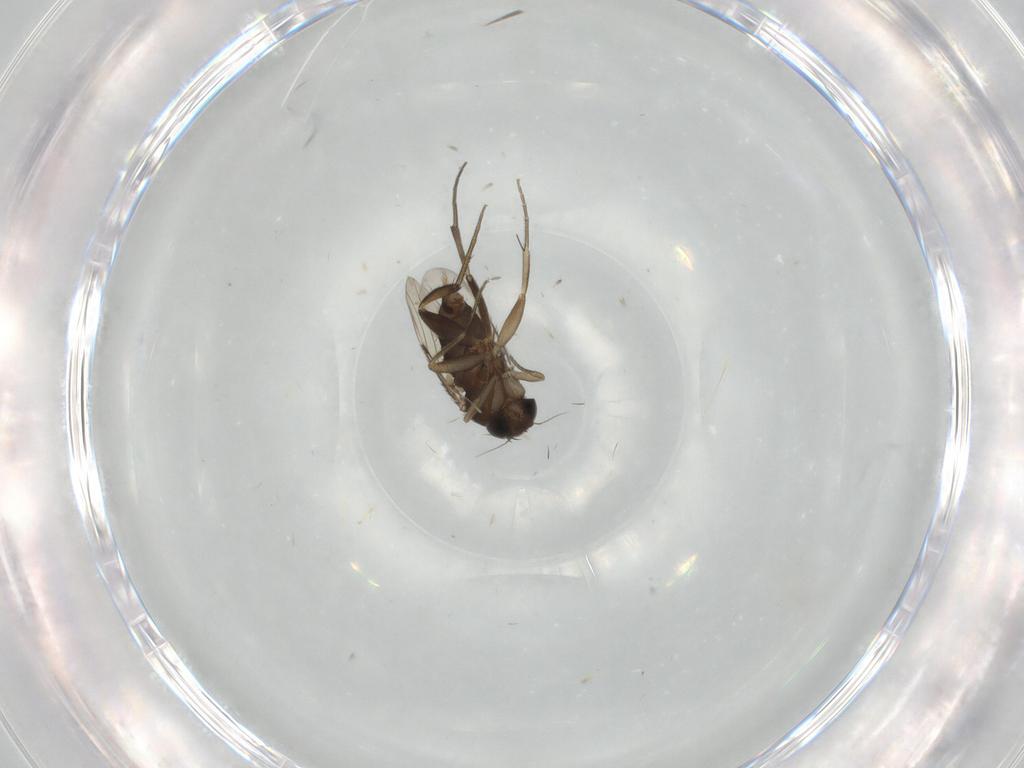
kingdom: Animalia
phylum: Arthropoda
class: Insecta
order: Diptera
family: Phoridae
